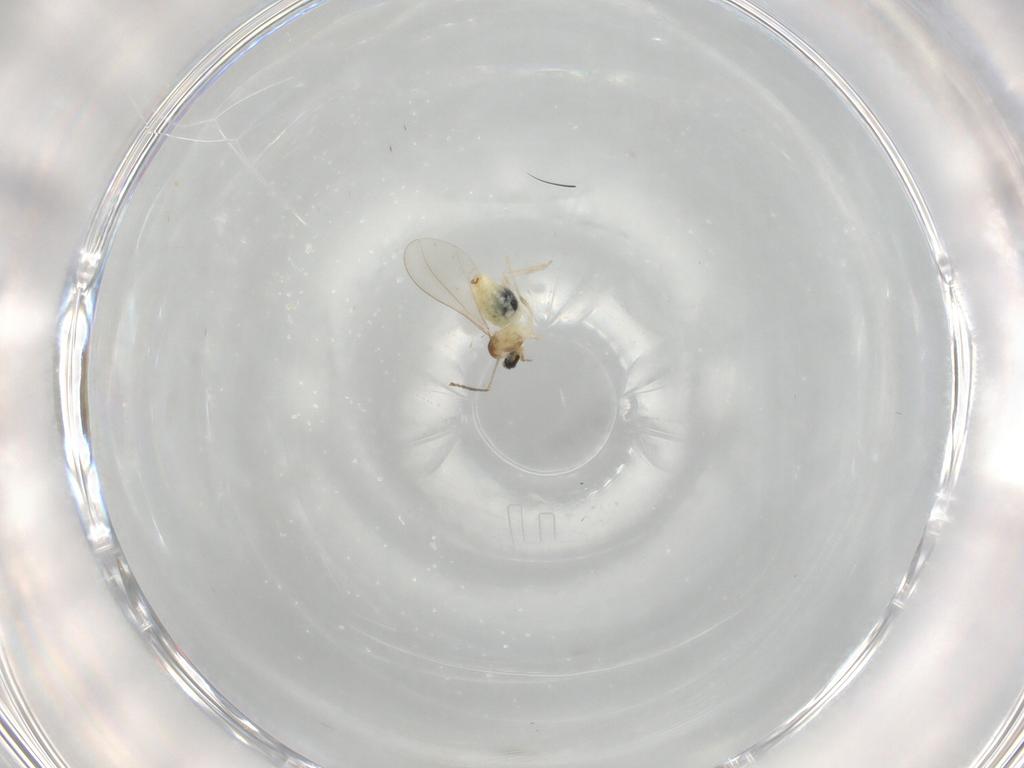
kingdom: Animalia
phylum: Arthropoda
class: Insecta
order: Diptera
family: Cecidomyiidae
